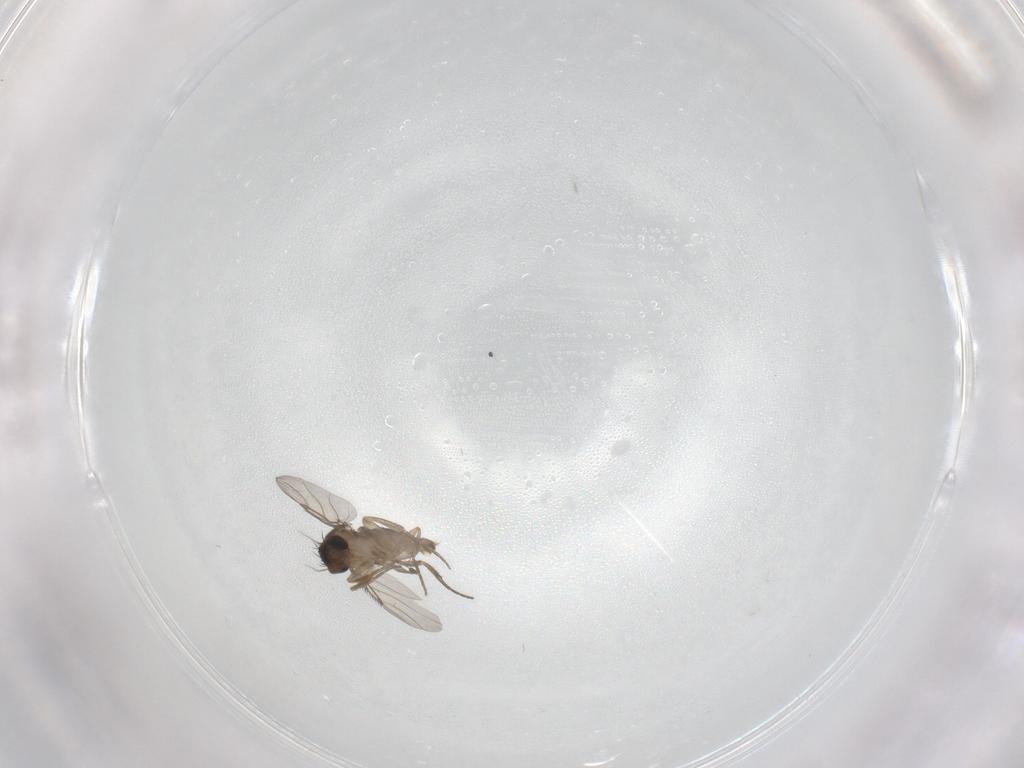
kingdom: Animalia
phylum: Arthropoda
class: Insecta
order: Diptera
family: Phoridae
